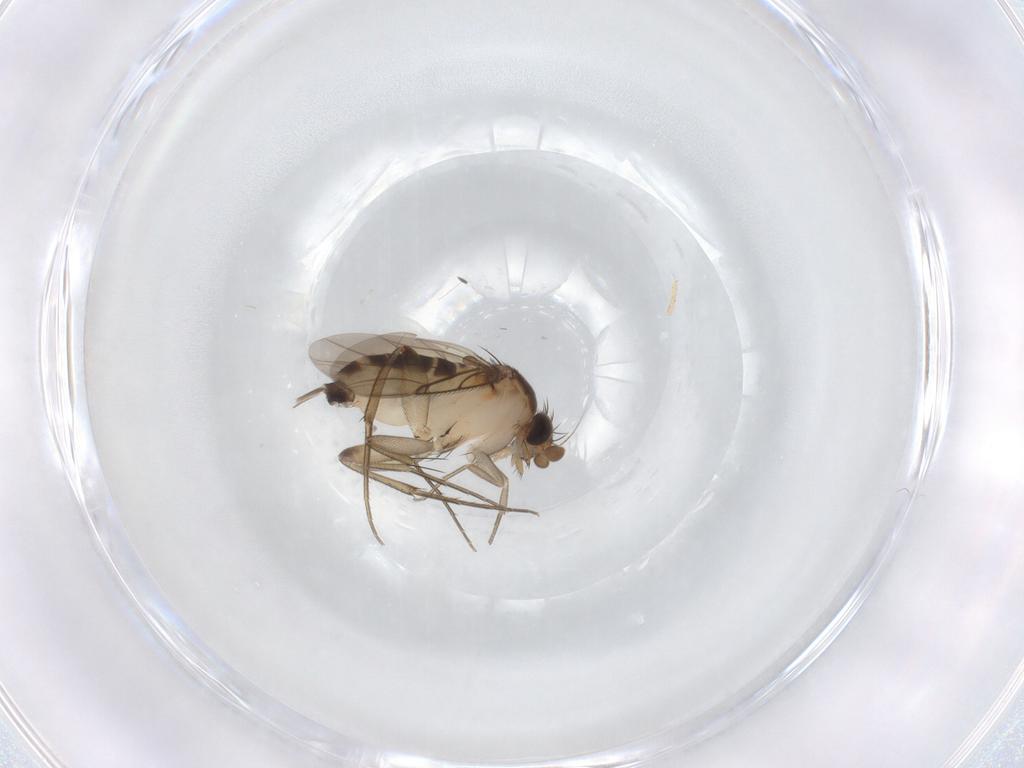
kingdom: Animalia
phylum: Arthropoda
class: Insecta
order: Diptera
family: Phoridae
